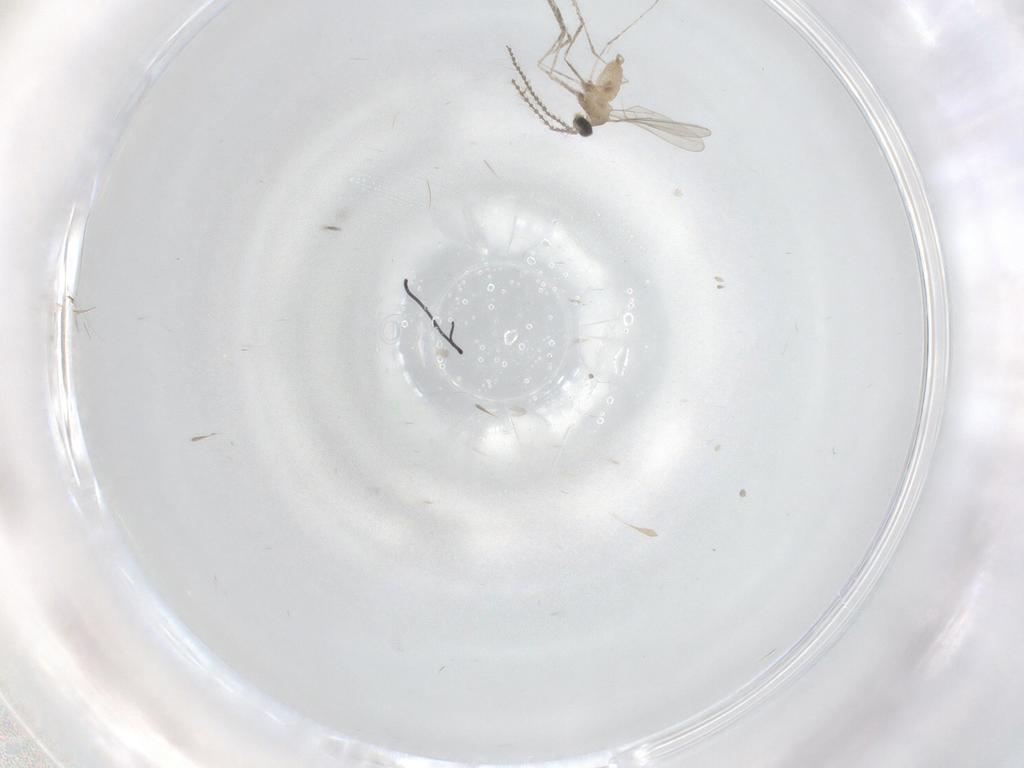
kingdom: Animalia
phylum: Arthropoda
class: Insecta
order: Diptera
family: Cecidomyiidae
